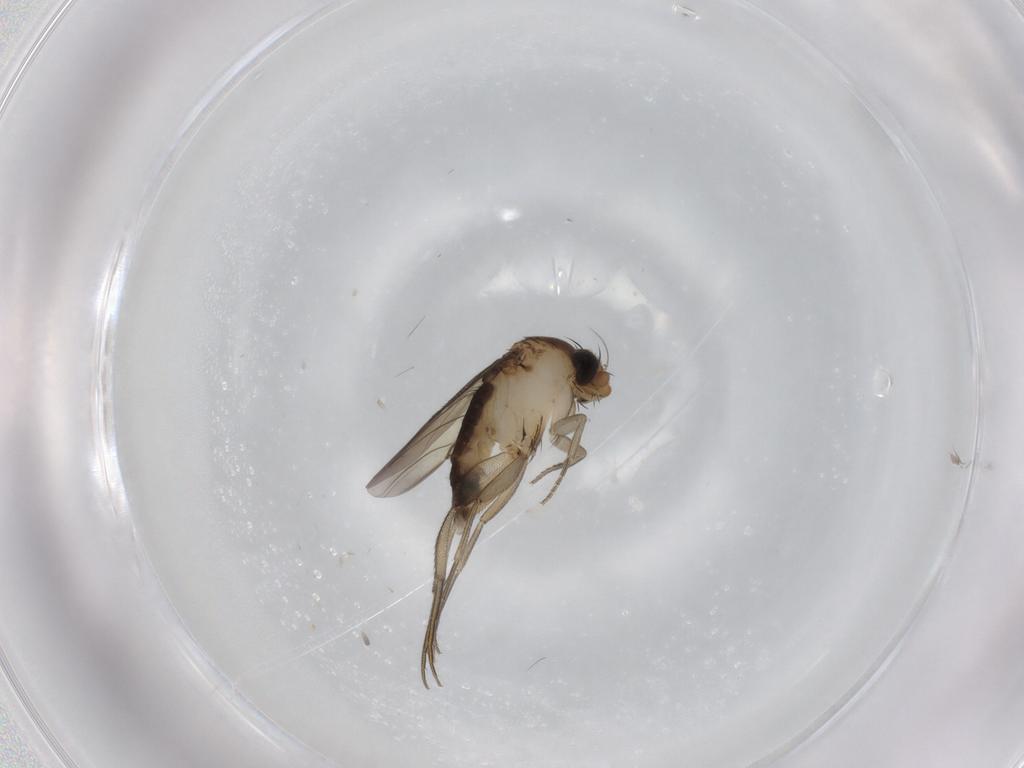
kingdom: Animalia
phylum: Arthropoda
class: Insecta
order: Diptera
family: Phoridae
